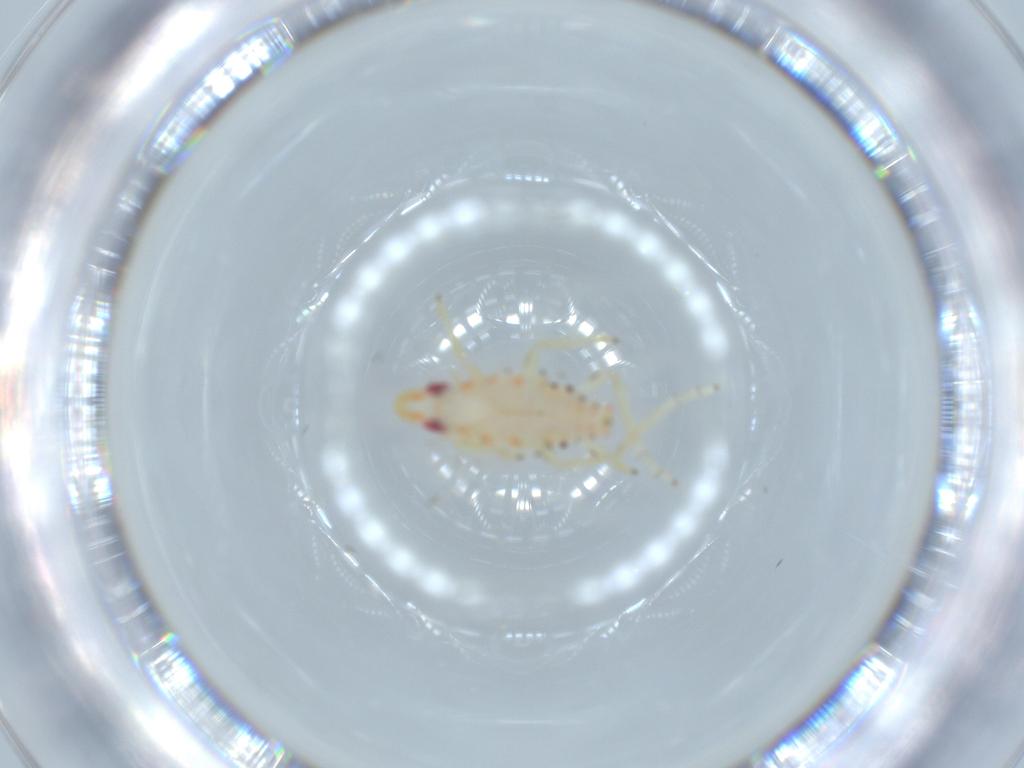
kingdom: Animalia
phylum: Arthropoda
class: Insecta
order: Hemiptera
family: Tropiduchidae
